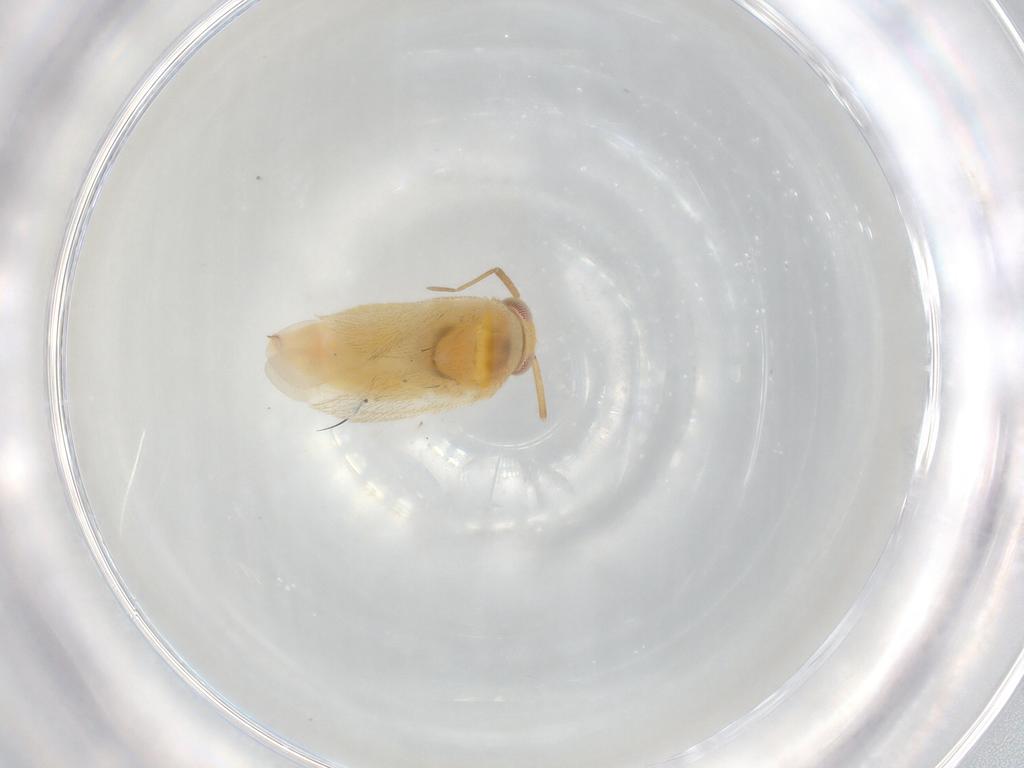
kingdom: Animalia
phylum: Arthropoda
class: Insecta
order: Hemiptera
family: Miridae
